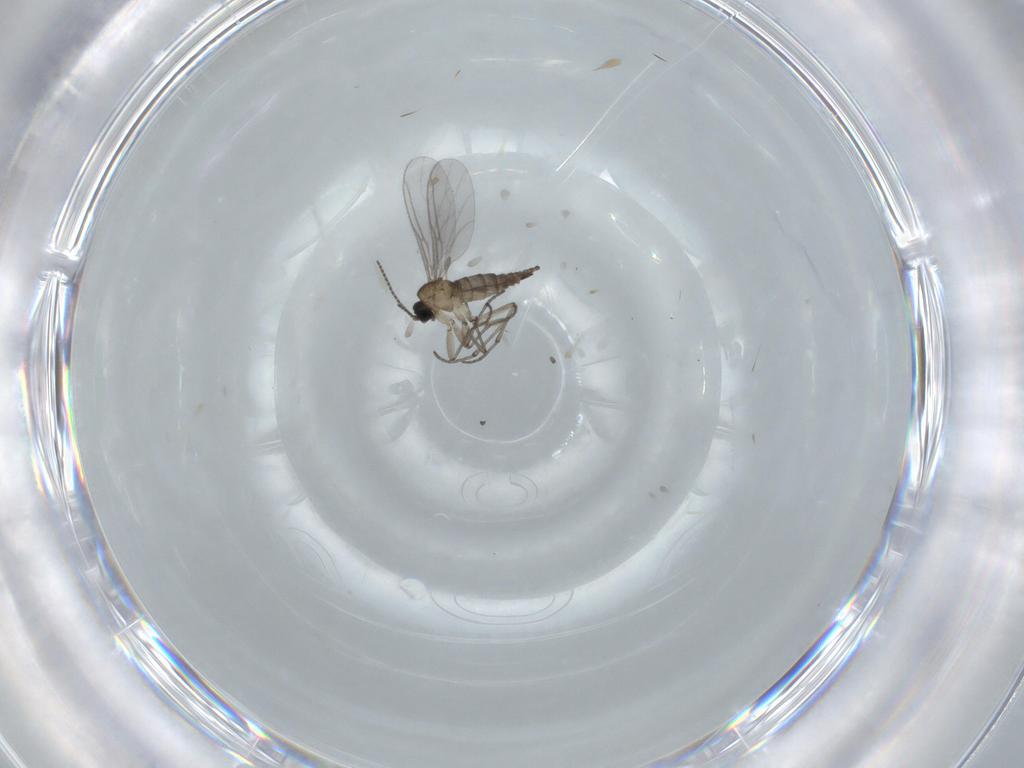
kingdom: Animalia
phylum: Arthropoda
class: Insecta
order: Diptera
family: Sciaridae
